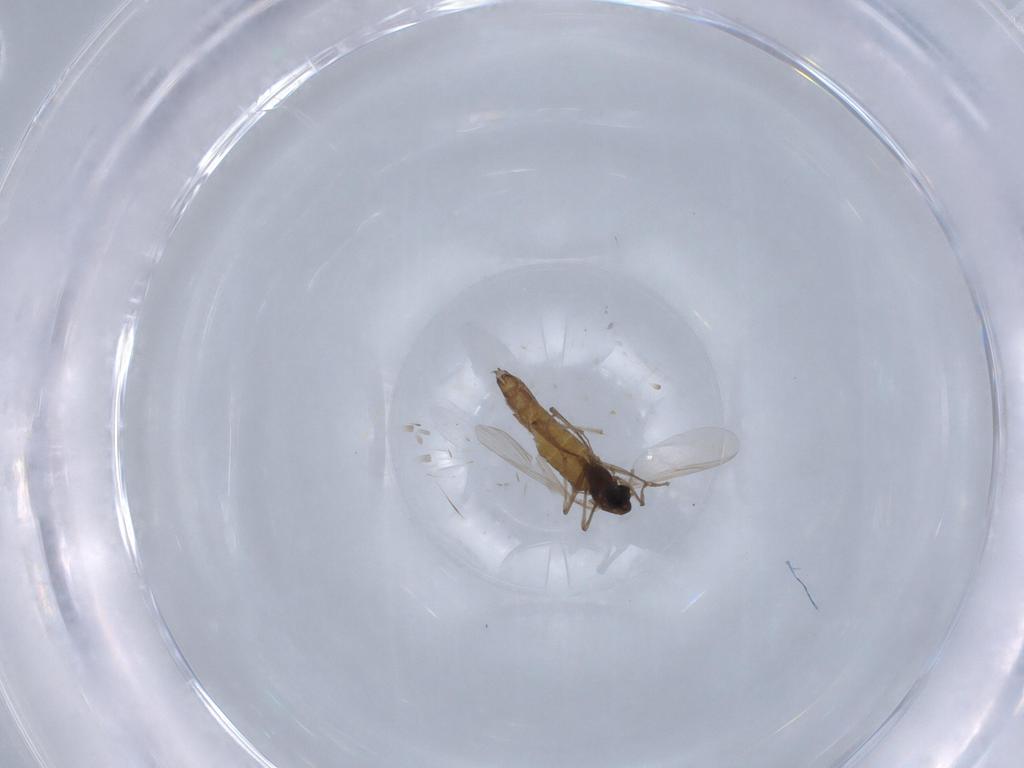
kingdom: Animalia
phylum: Arthropoda
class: Insecta
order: Diptera
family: Chironomidae
